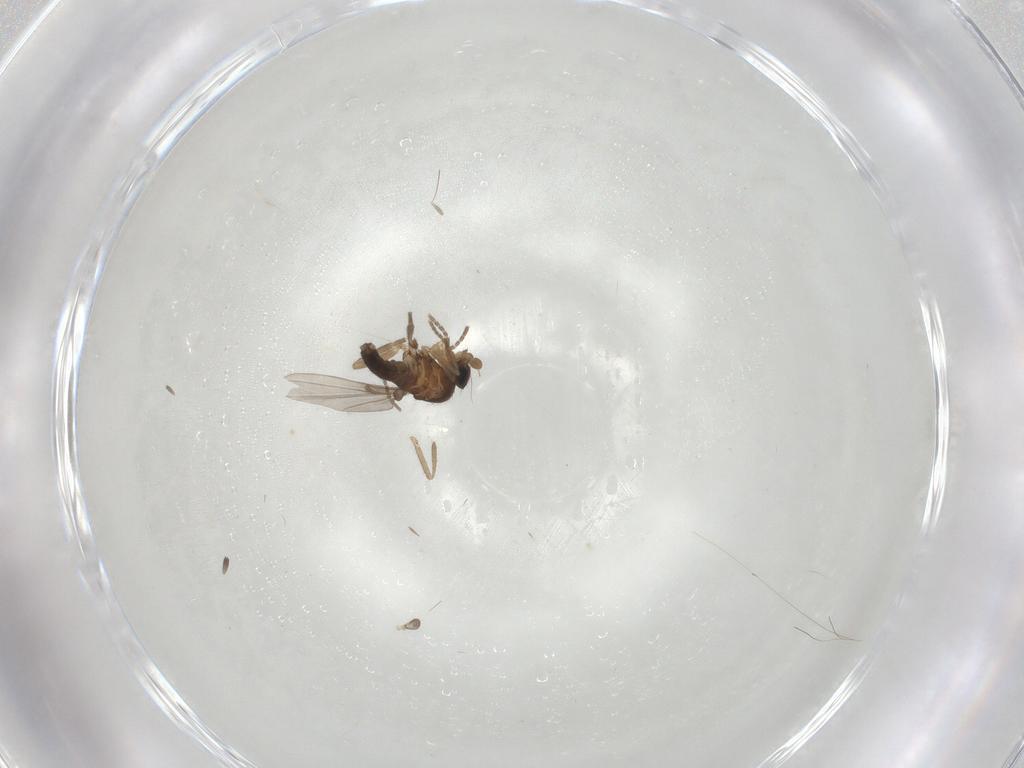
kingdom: Animalia
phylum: Arthropoda
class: Insecta
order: Diptera
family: Phoridae
